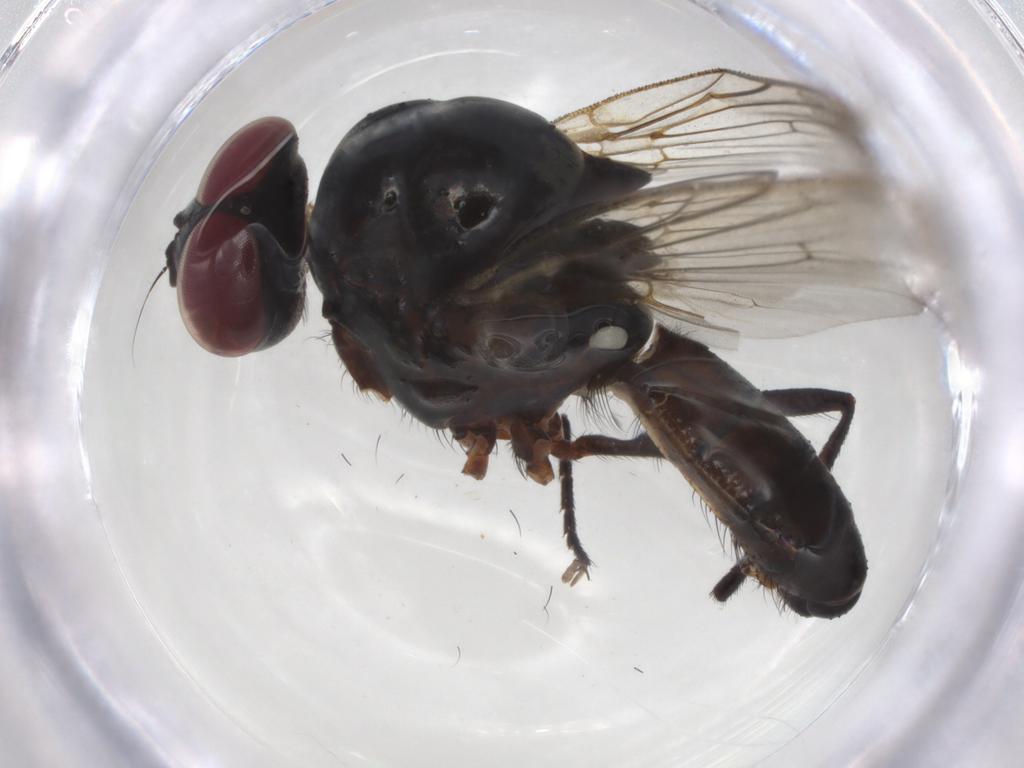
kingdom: Animalia
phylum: Arthropoda
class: Insecta
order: Diptera
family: Anthomyiidae
